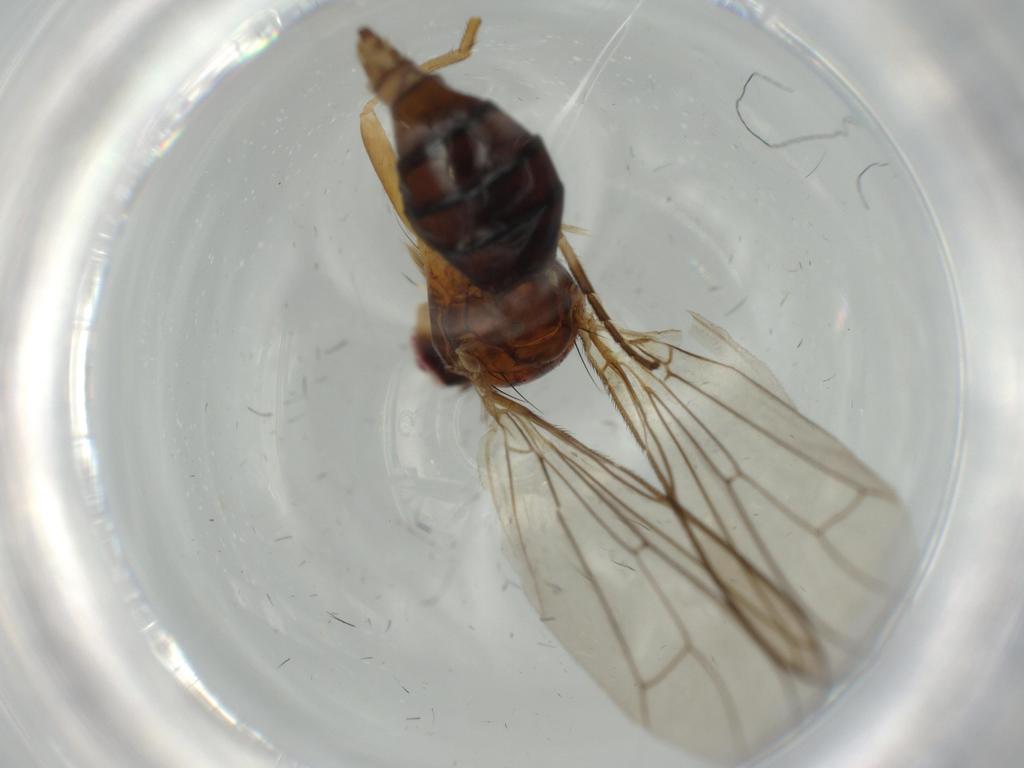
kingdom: Animalia
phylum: Arthropoda
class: Insecta
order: Diptera
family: Scathophagidae
